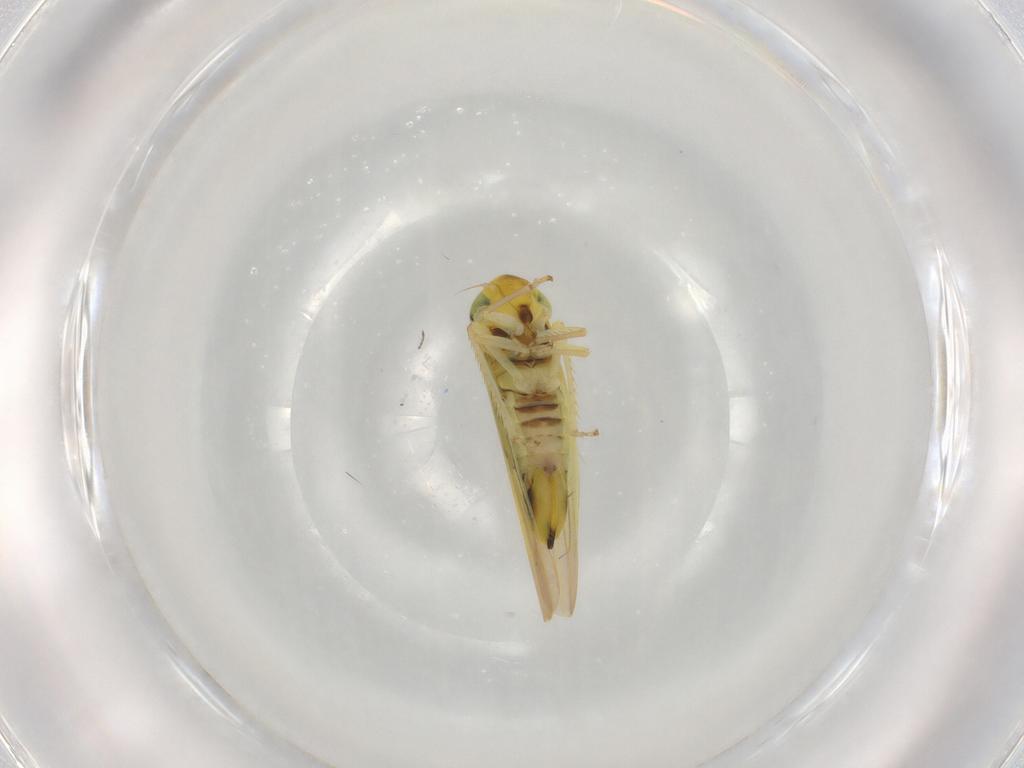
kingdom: Animalia
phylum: Arthropoda
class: Insecta
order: Hemiptera
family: Cicadellidae
